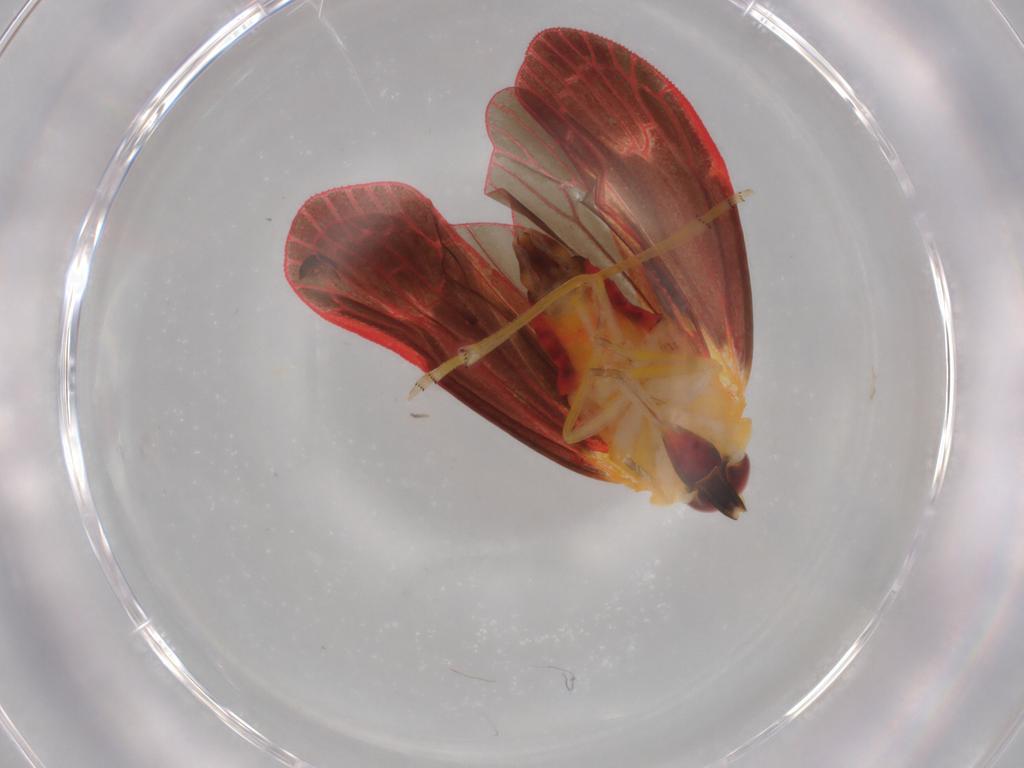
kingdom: Animalia
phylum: Arthropoda
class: Insecta
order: Hemiptera
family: Derbidae
